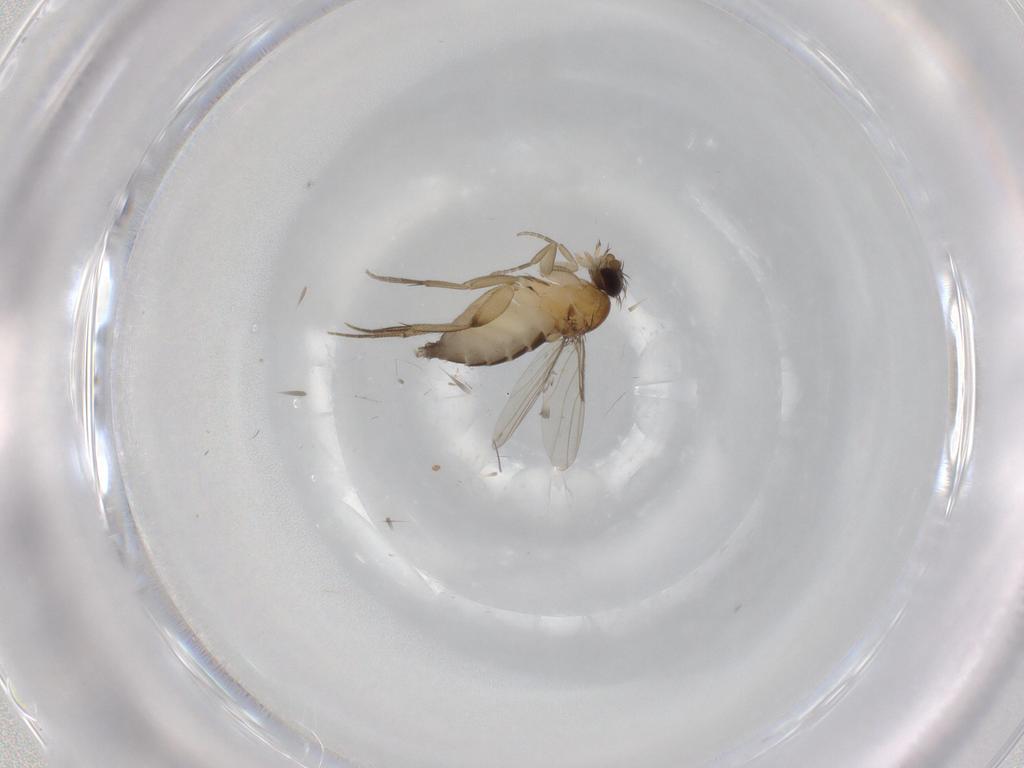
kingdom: Animalia
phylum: Arthropoda
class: Insecta
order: Diptera
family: Phoridae
